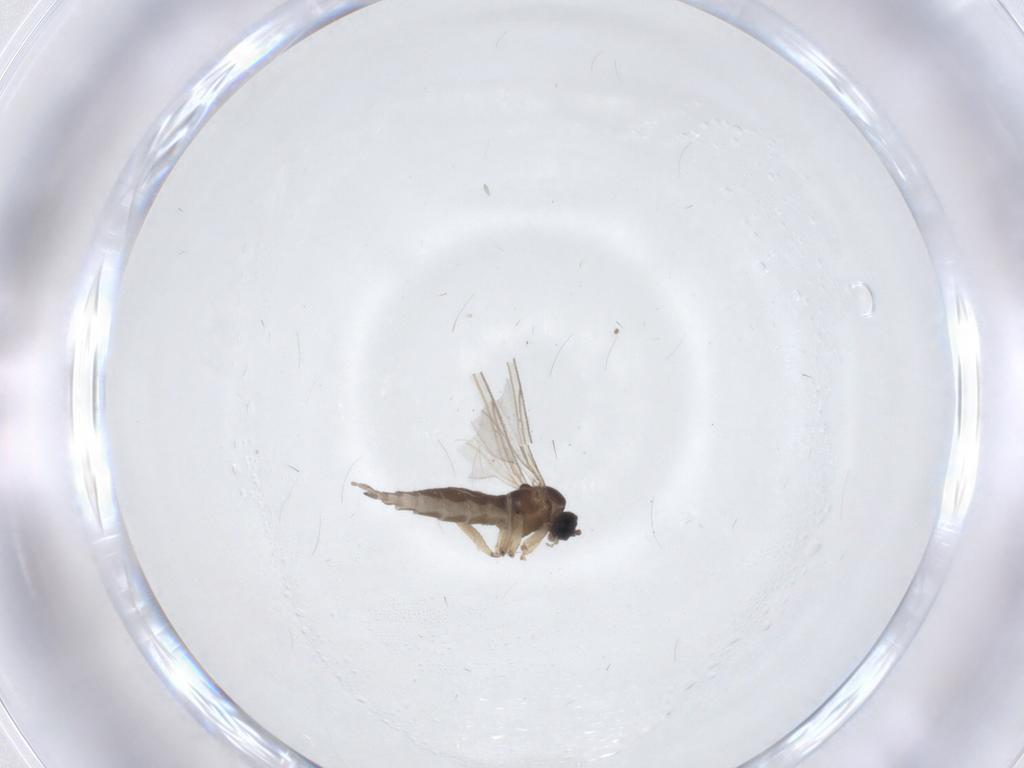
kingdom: Animalia
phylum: Arthropoda
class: Insecta
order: Diptera
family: Sciaridae
